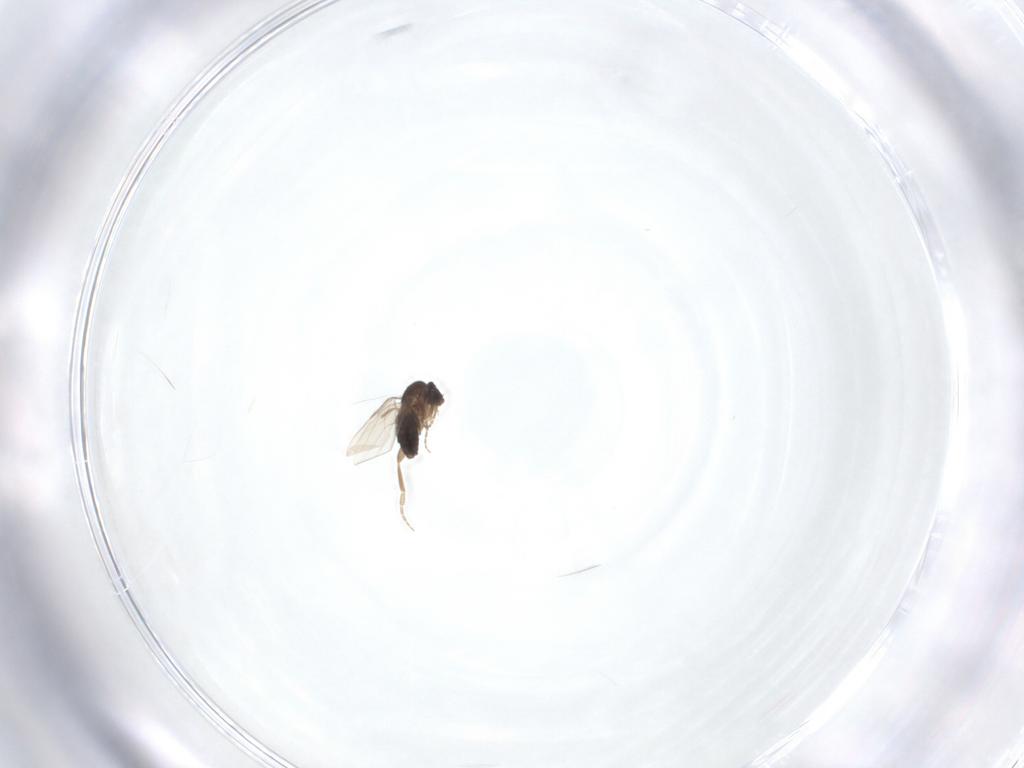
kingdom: Animalia
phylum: Arthropoda
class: Insecta
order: Diptera
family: Phoridae
